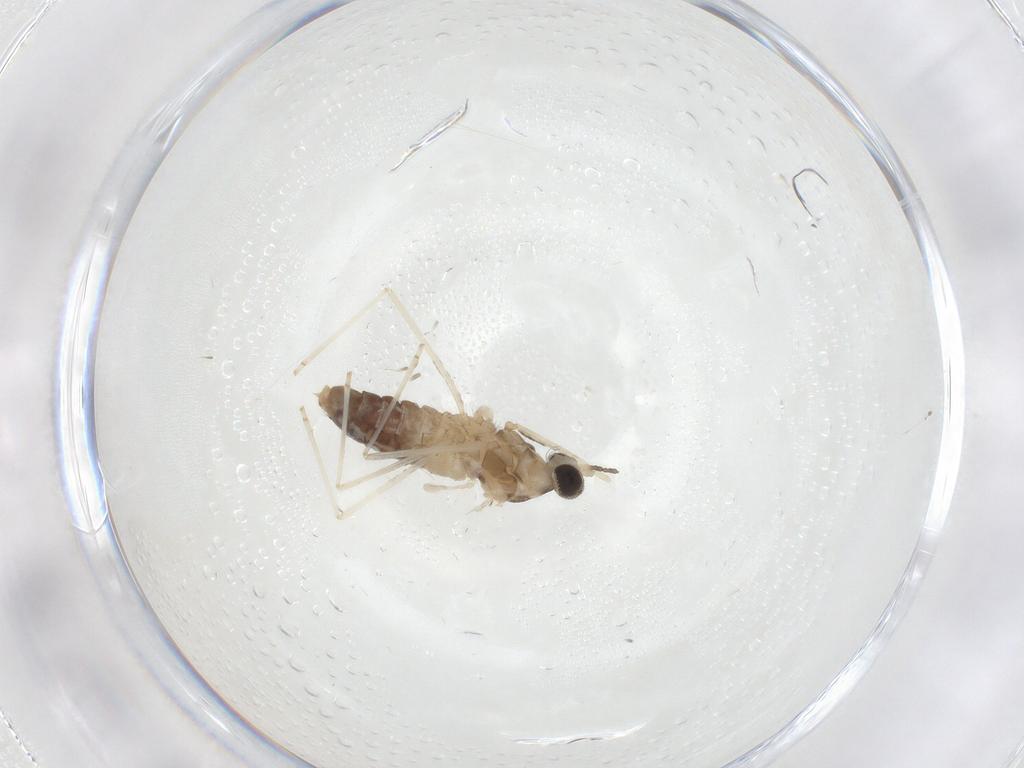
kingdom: Animalia
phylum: Arthropoda
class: Insecta
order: Diptera
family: Cecidomyiidae
